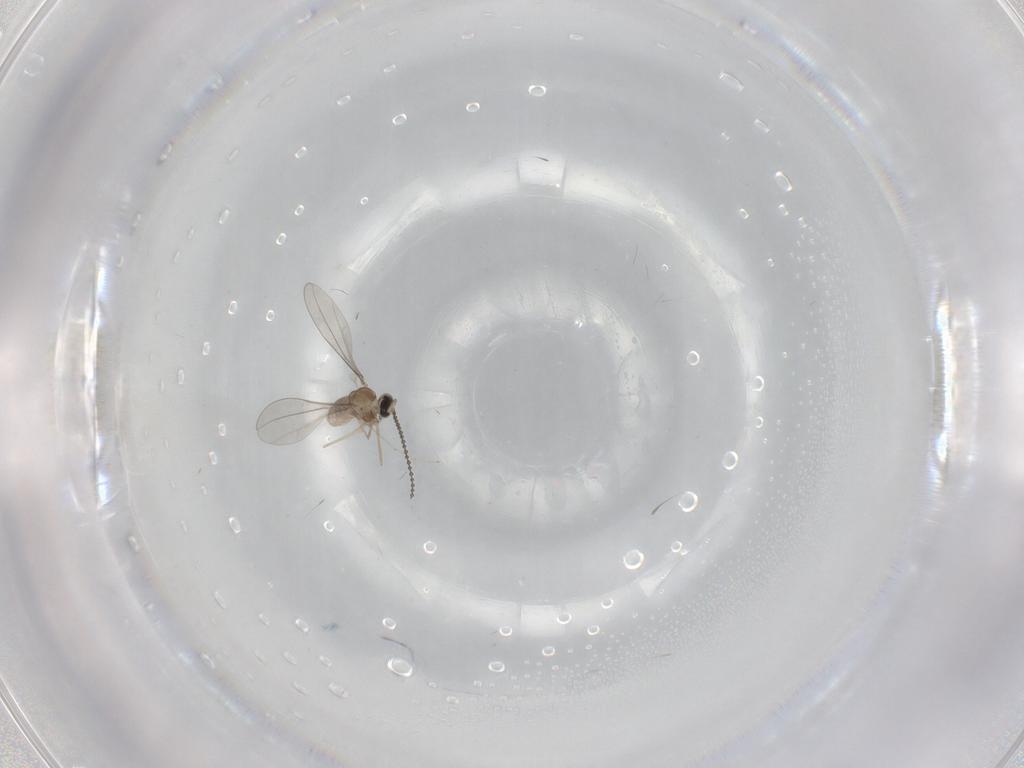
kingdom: Animalia
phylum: Arthropoda
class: Insecta
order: Diptera
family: Cecidomyiidae
